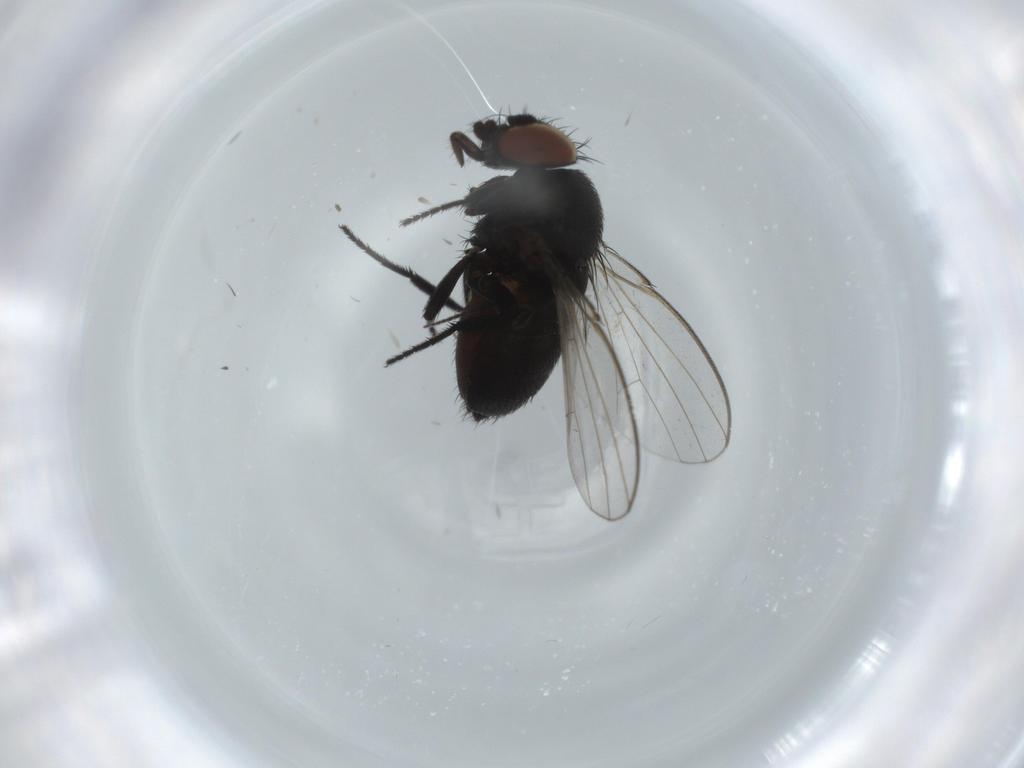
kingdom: Animalia
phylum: Arthropoda
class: Insecta
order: Diptera
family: Milichiidae
